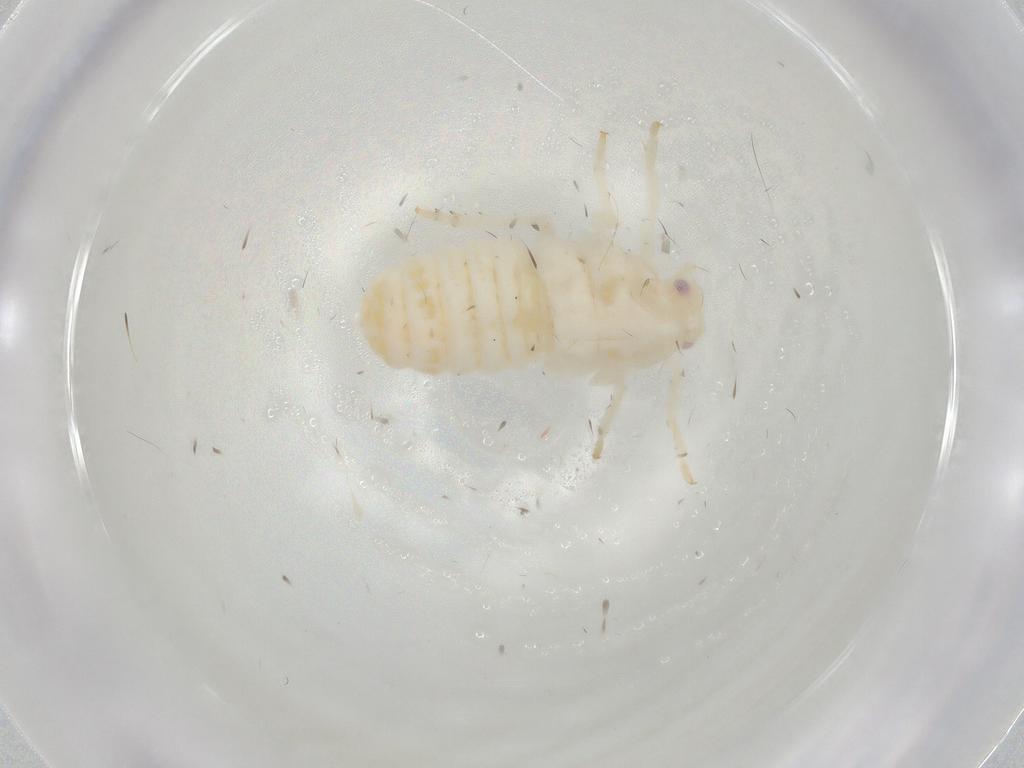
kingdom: Animalia
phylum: Arthropoda
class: Insecta
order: Hemiptera
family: Flatidae
